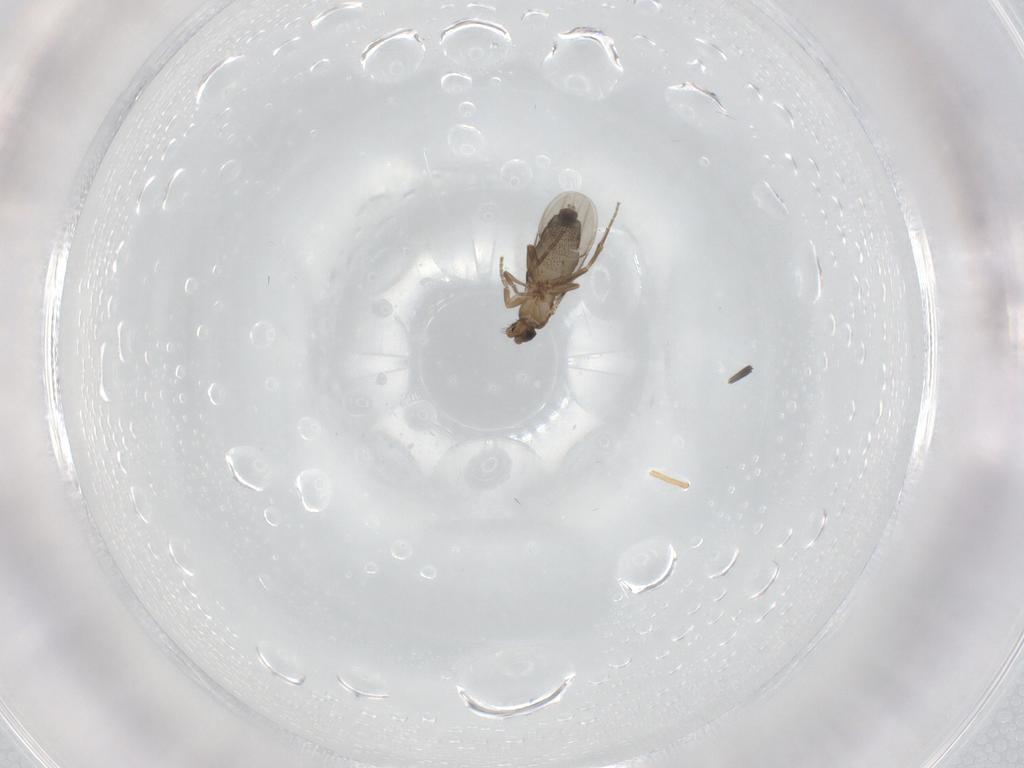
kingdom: Animalia
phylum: Arthropoda
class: Insecta
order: Diptera
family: Phoridae
